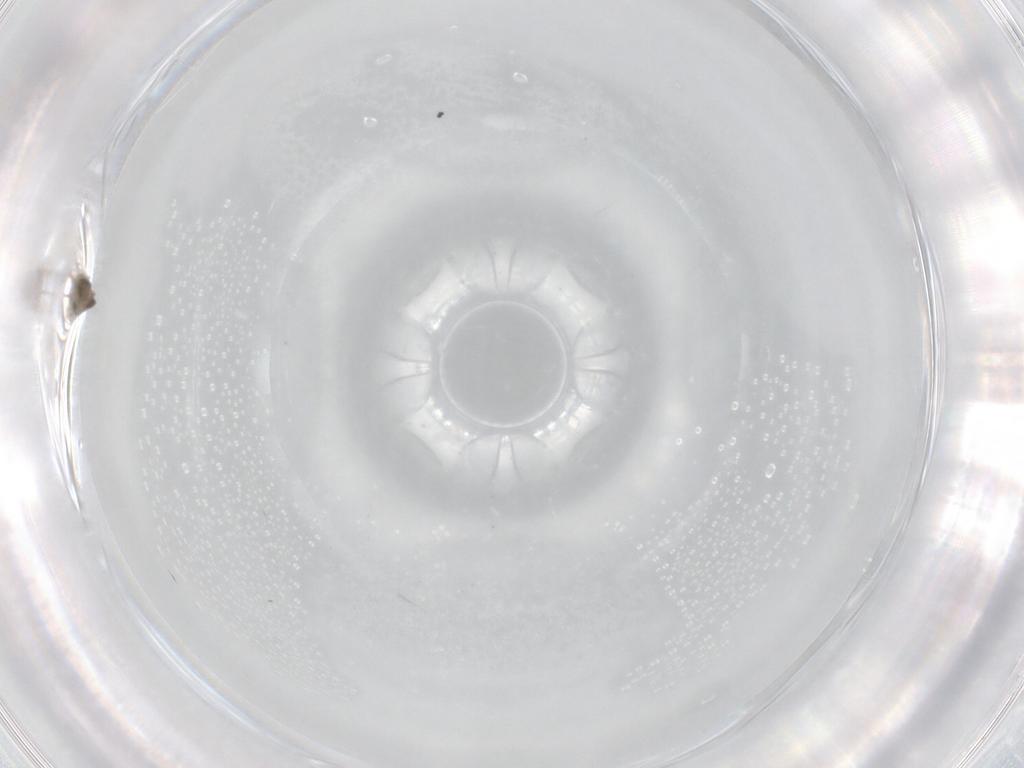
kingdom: Animalia
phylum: Arthropoda
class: Insecta
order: Diptera
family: Cecidomyiidae
